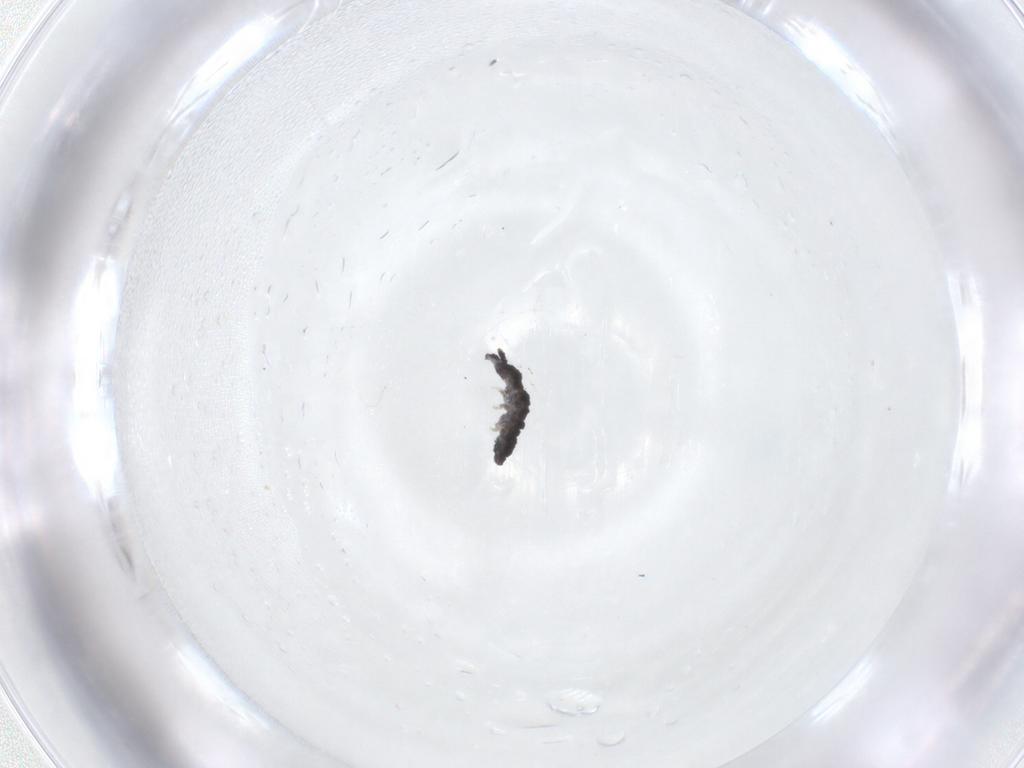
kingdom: Animalia
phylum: Arthropoda
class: Collembola
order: Poduromorpha
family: Neanuridae
